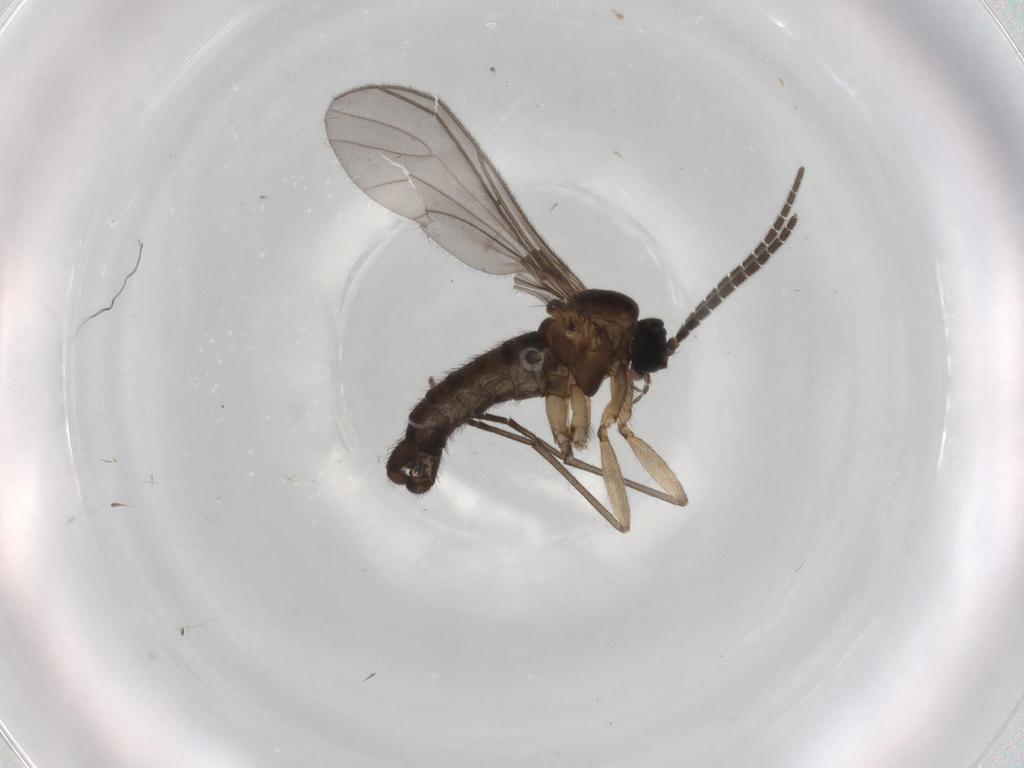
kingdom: Animalia
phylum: Arthropoda
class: Insecta
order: Diptera
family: Sciaridae
